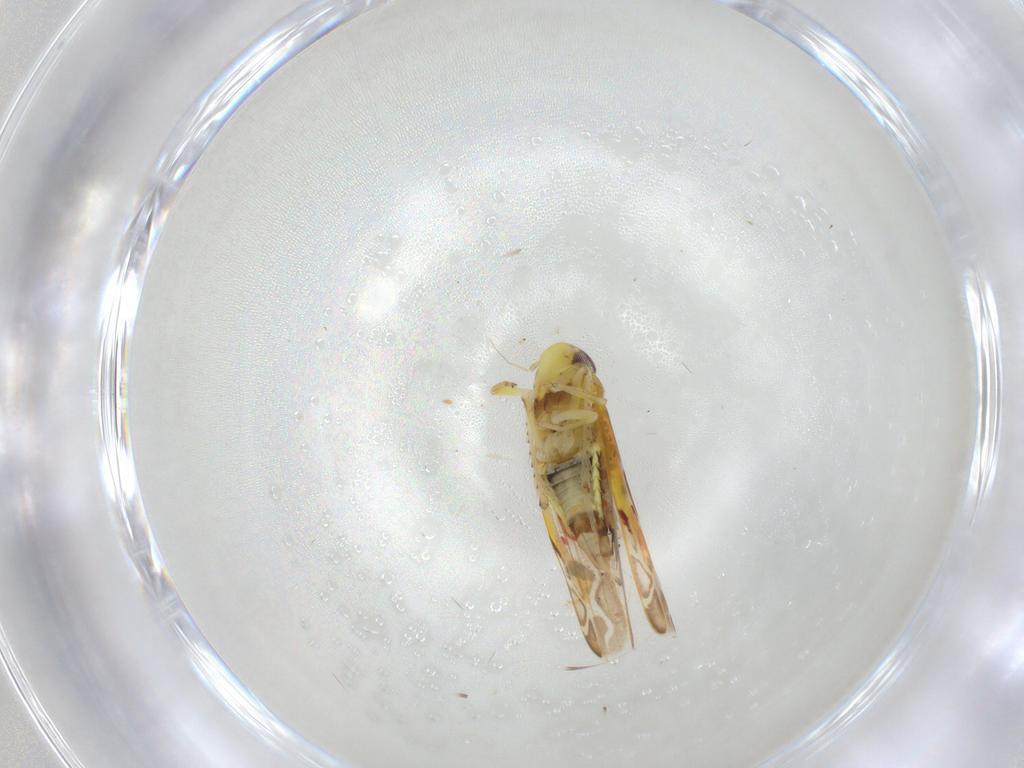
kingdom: Animalia
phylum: Arthropoda
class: Insecta
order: Hemiptera
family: Cicadellidae
